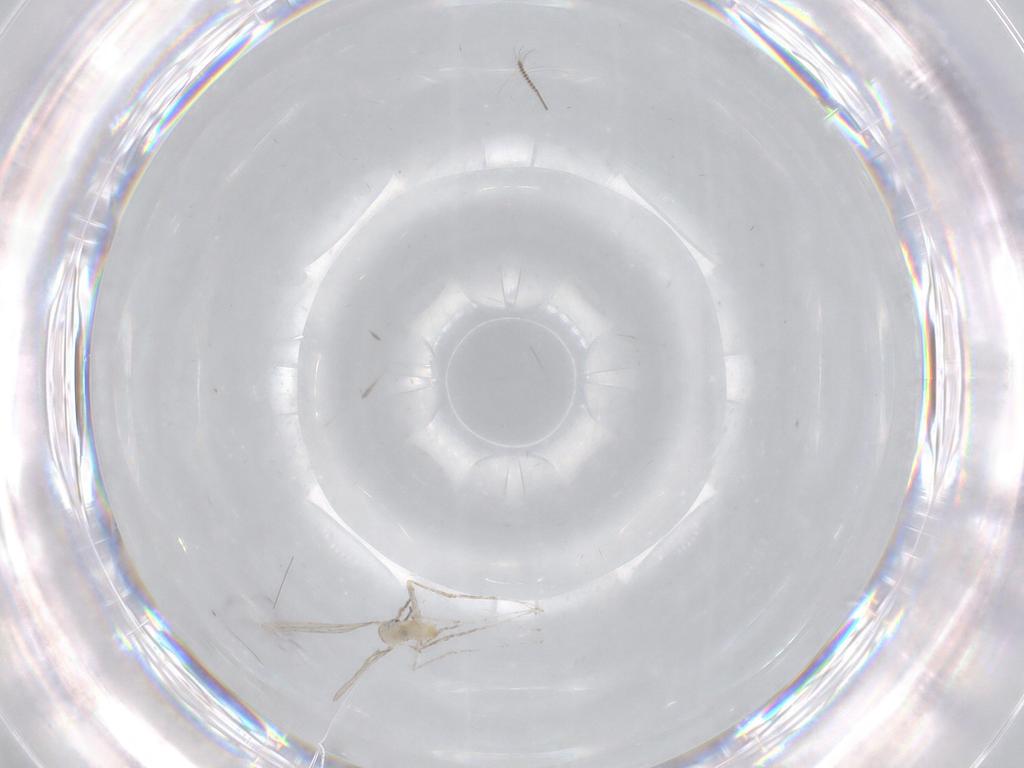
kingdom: Animalia
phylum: Arthropoda
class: Insecta
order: Diptera
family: Cecidomyiidae
